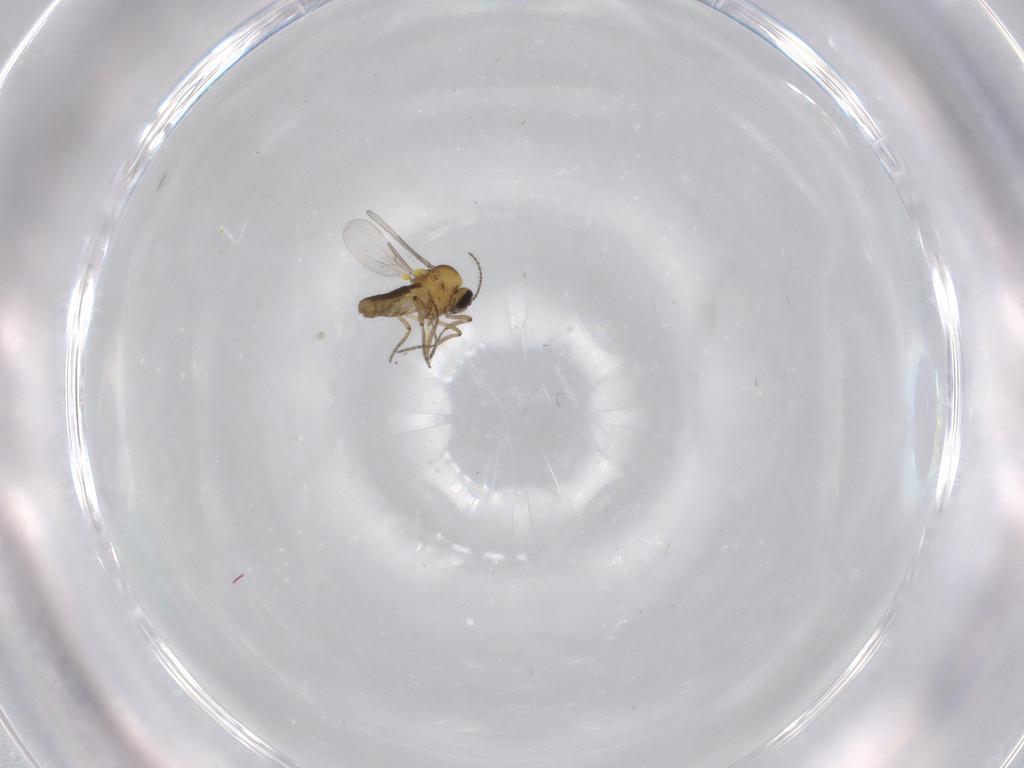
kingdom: Animalia
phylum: Arthropoda
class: Insecta
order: Diptera
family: Ceratopogonidae
